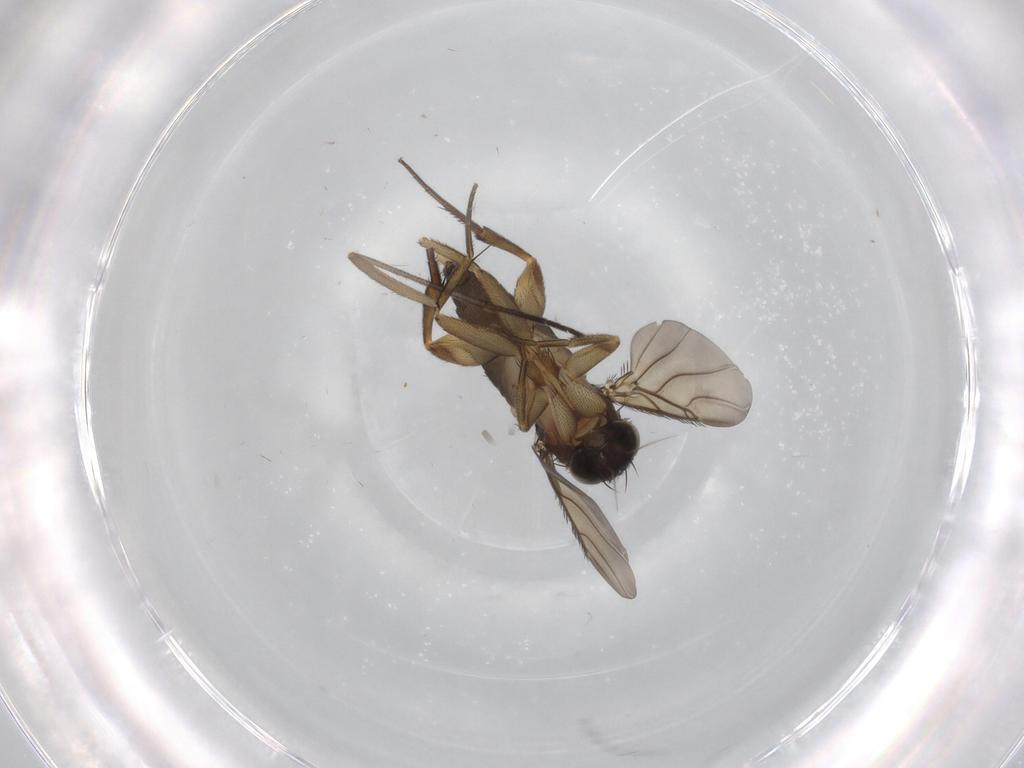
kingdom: Animalia
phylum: Arthropoda
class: Insecta
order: Diptera
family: Phoridae
